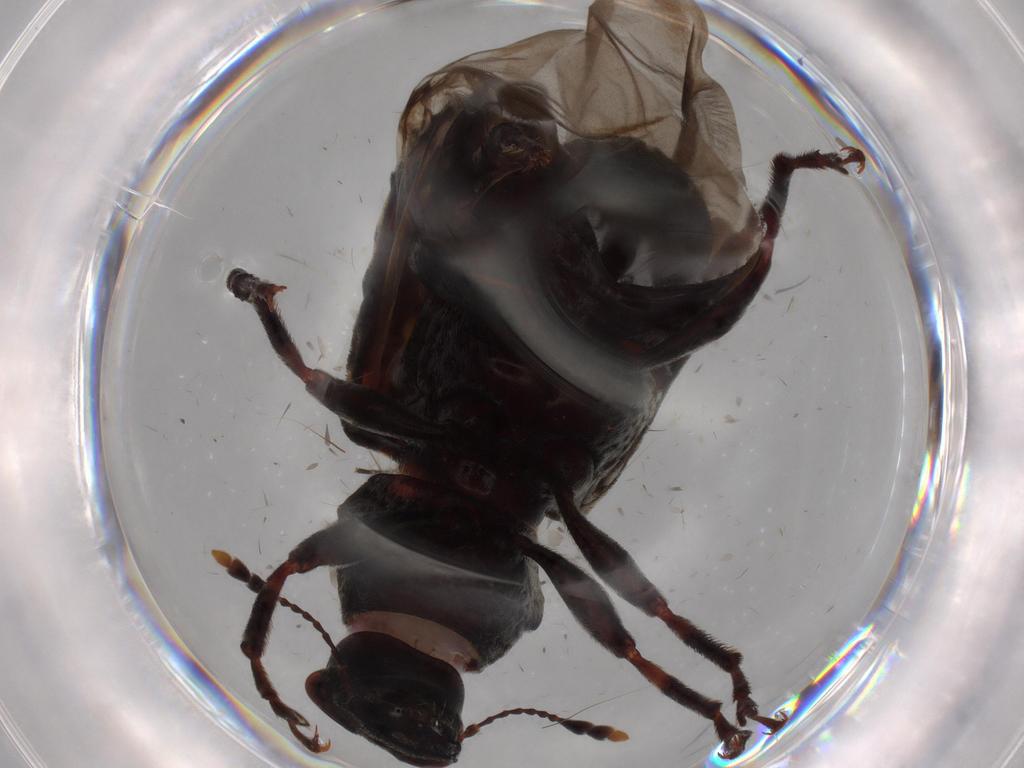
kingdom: Animalia
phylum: Arthropoda
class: Insecta
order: Coleoptera
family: Anthribidae
